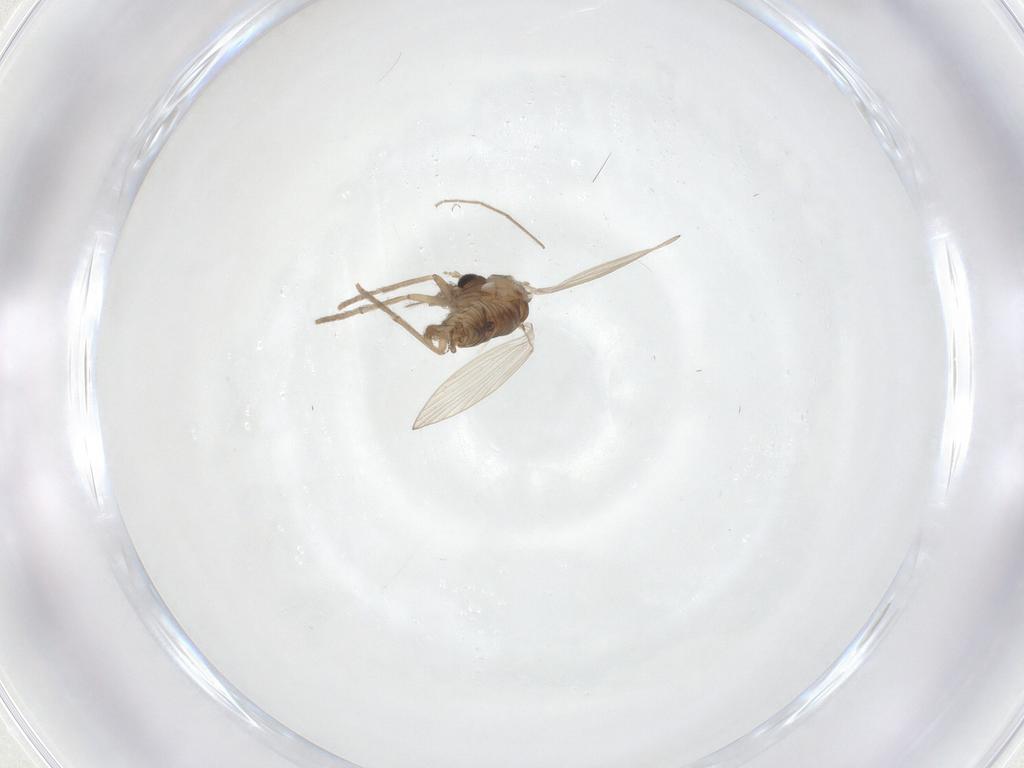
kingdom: Animalia
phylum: Arthropoda
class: Insecta
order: Diptera
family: Psychodidae
